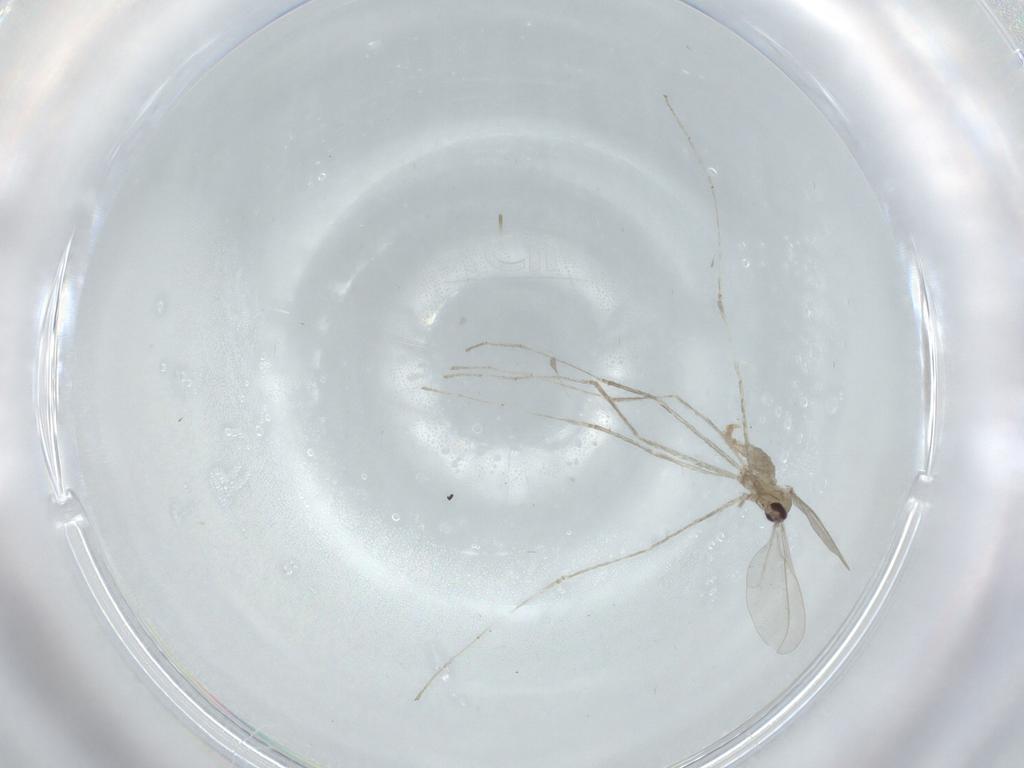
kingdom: Animalia
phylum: Arthropoda
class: Insecta
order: Diptera
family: Cecidomyiidae
